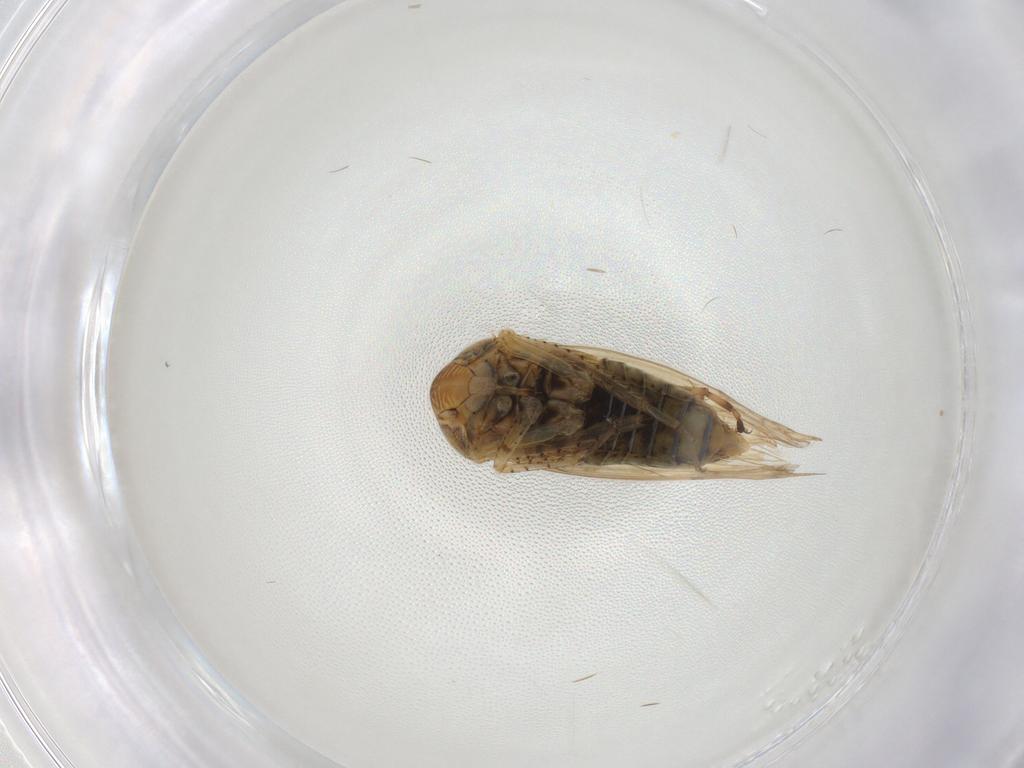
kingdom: Animalia
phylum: Arthropoda
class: Insecta
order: Hemiptera
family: Cicadellidae
